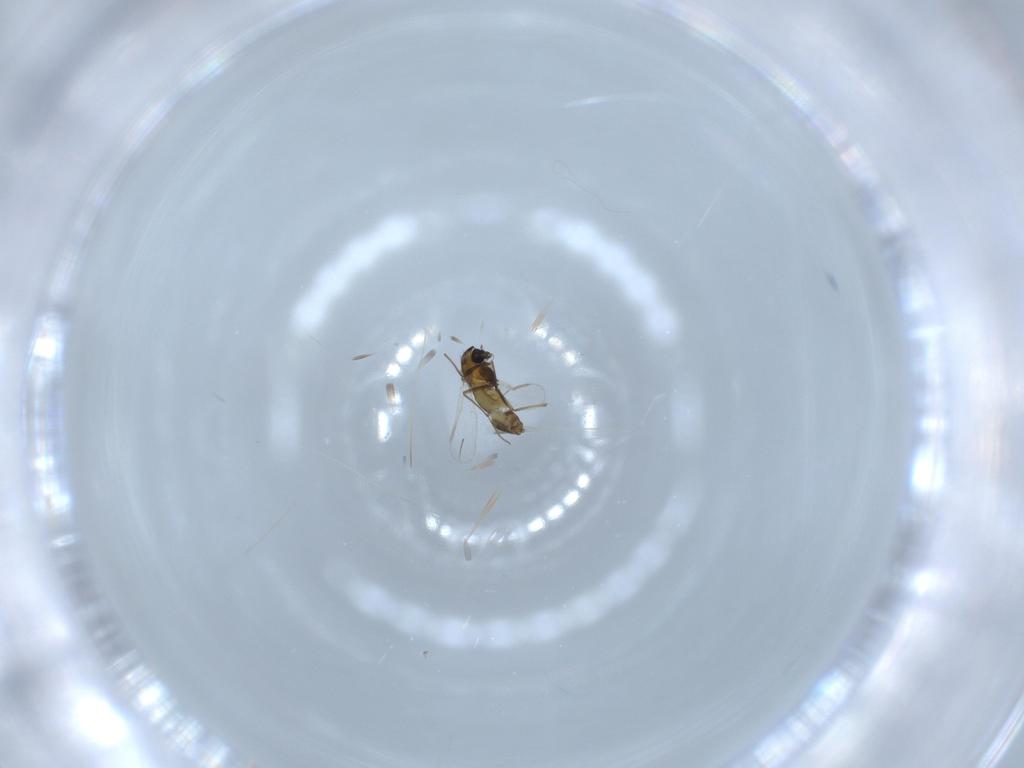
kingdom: Animalia
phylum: Arthropoda
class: Insecta
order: Diptera
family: Chironomidae
